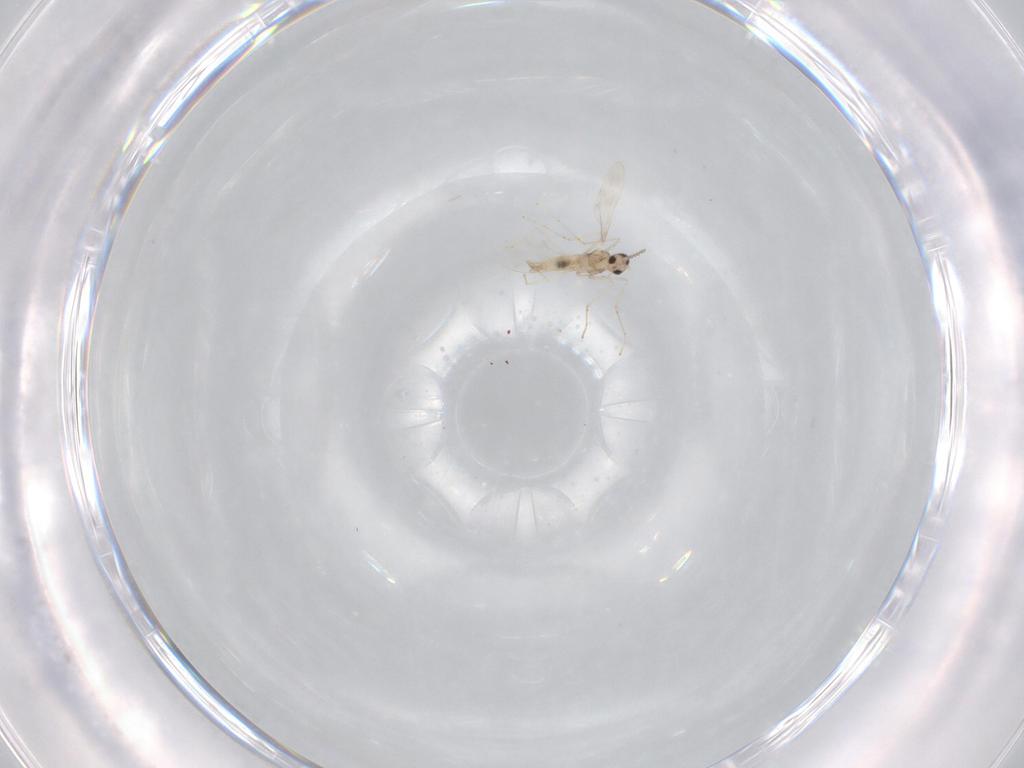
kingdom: Animalia
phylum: Arthropoda
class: Insecta
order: Diptera
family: Cecidomyiidae
